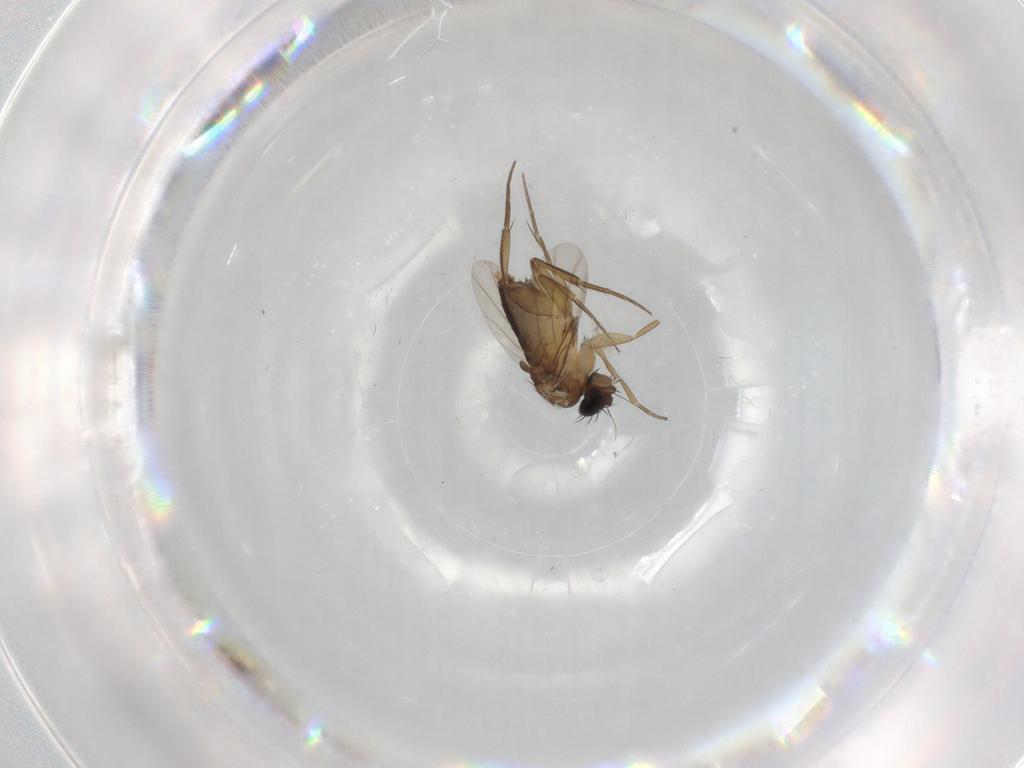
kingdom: Animalia
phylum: Arthropoda
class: Insecta
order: Diptera
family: Phoridae
